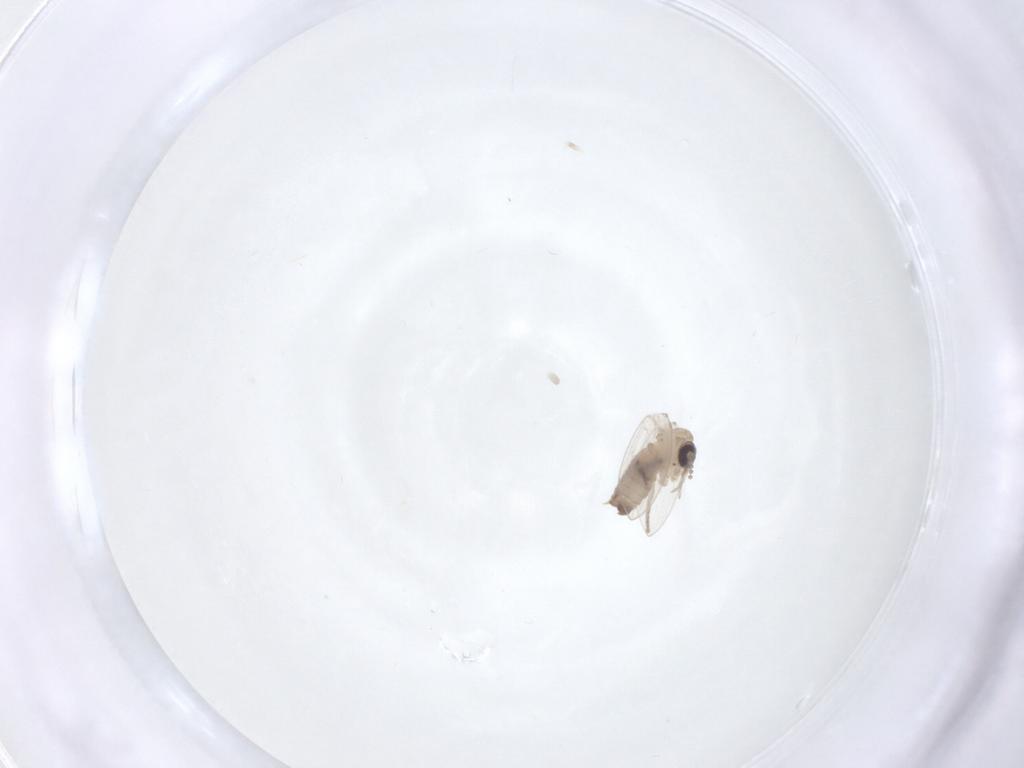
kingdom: Animalia
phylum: Arthropoda
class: Insecta
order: Diptera
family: Psychodidae
